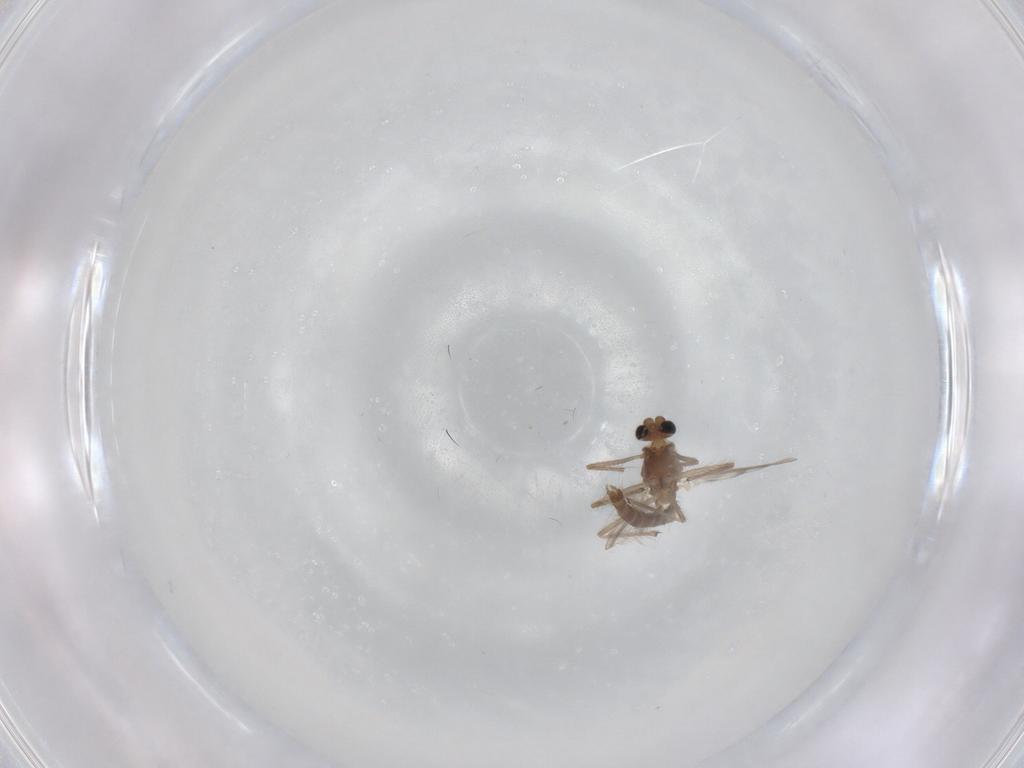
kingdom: Animalia
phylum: Arthropoda
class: Insecta
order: Diptera
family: Chironomidae
